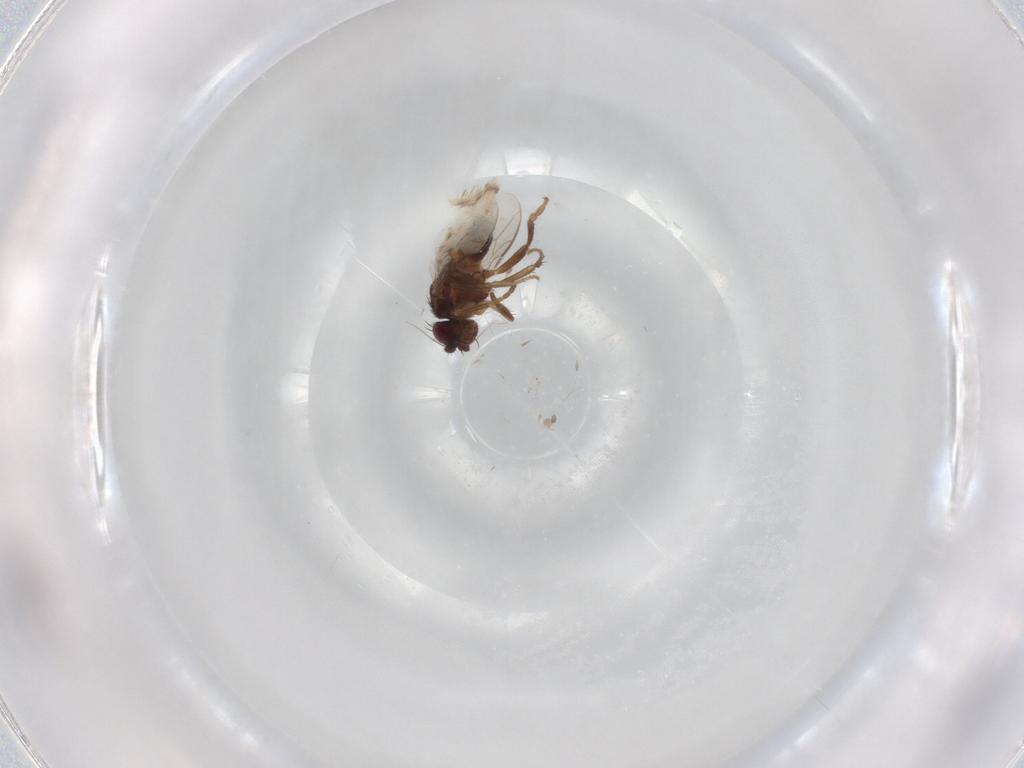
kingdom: Animalia
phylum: Arthropoda
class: Insecta
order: Diptera
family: Sphaeroceridae
